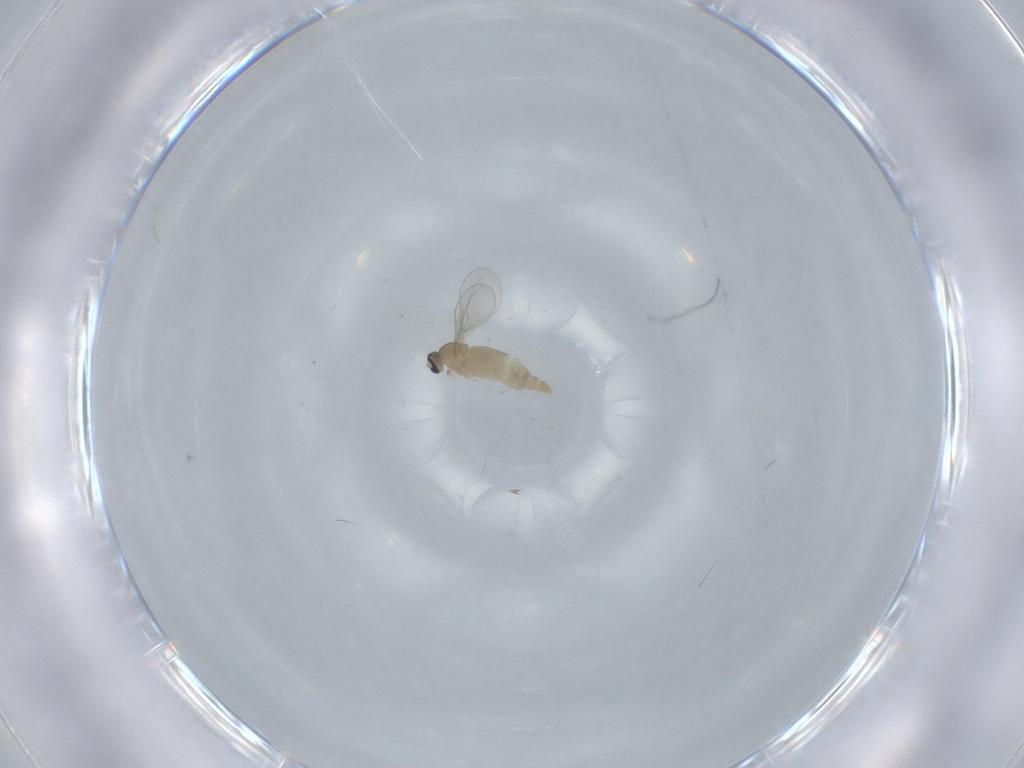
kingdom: Animalia
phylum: Arthropoda
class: Insecta
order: Diptera
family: Cecidomyiidae
